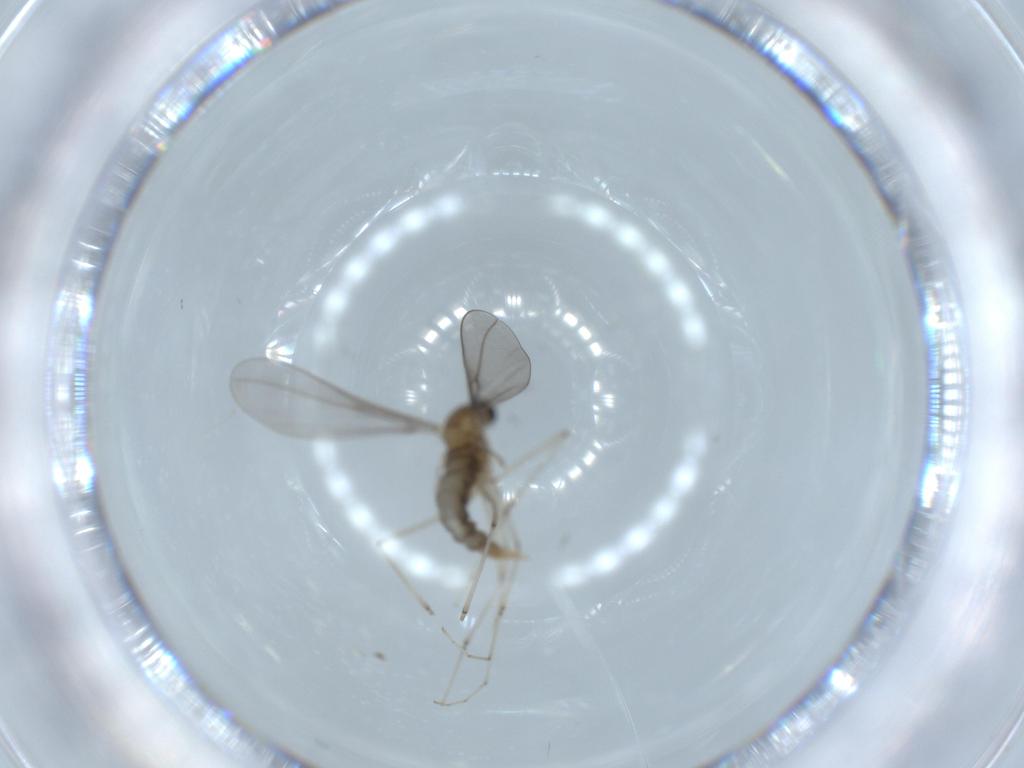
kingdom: Animalia
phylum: Arthropoda
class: Insecta
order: Diptera
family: Cecidomyiidae
